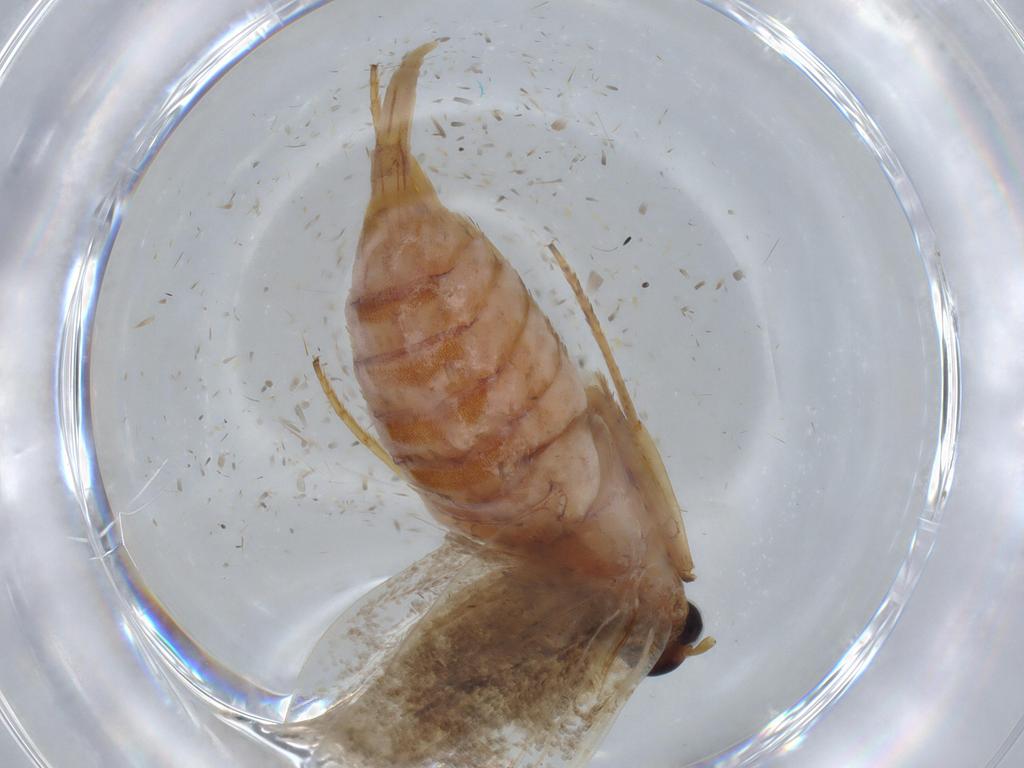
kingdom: Animalia
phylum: Arthropoda
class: Insecta
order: Lepidoptera
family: Blastobasidae
